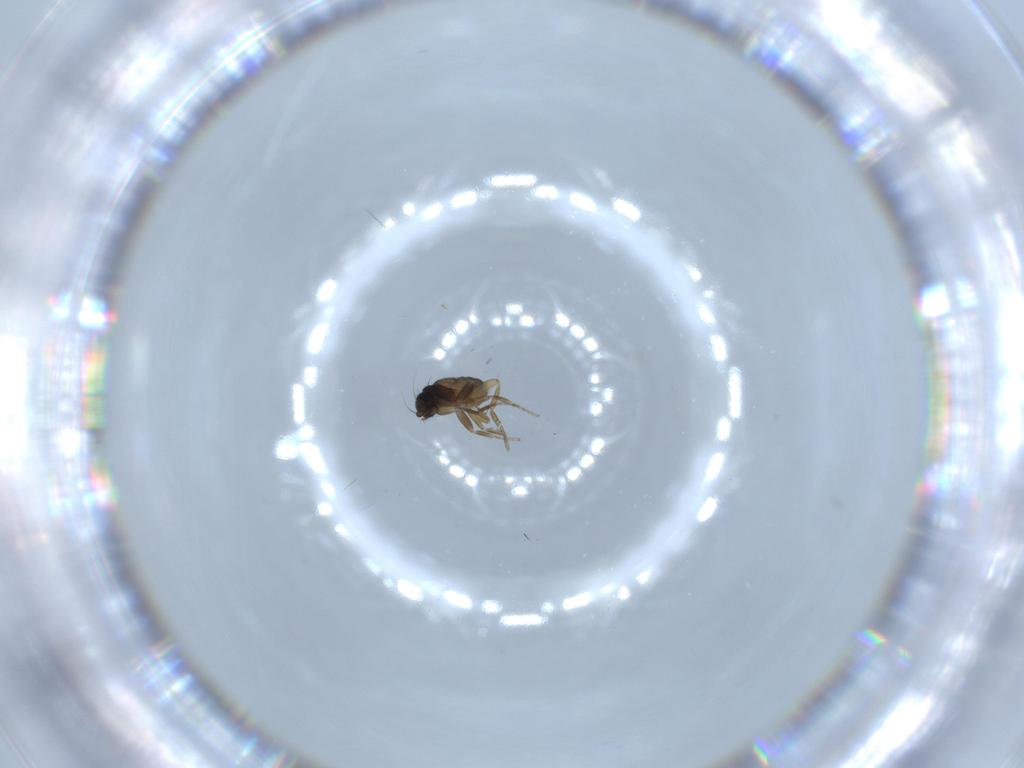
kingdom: Animalia
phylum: Arthropoda
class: Insecta
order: Diptera
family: Phoridae
